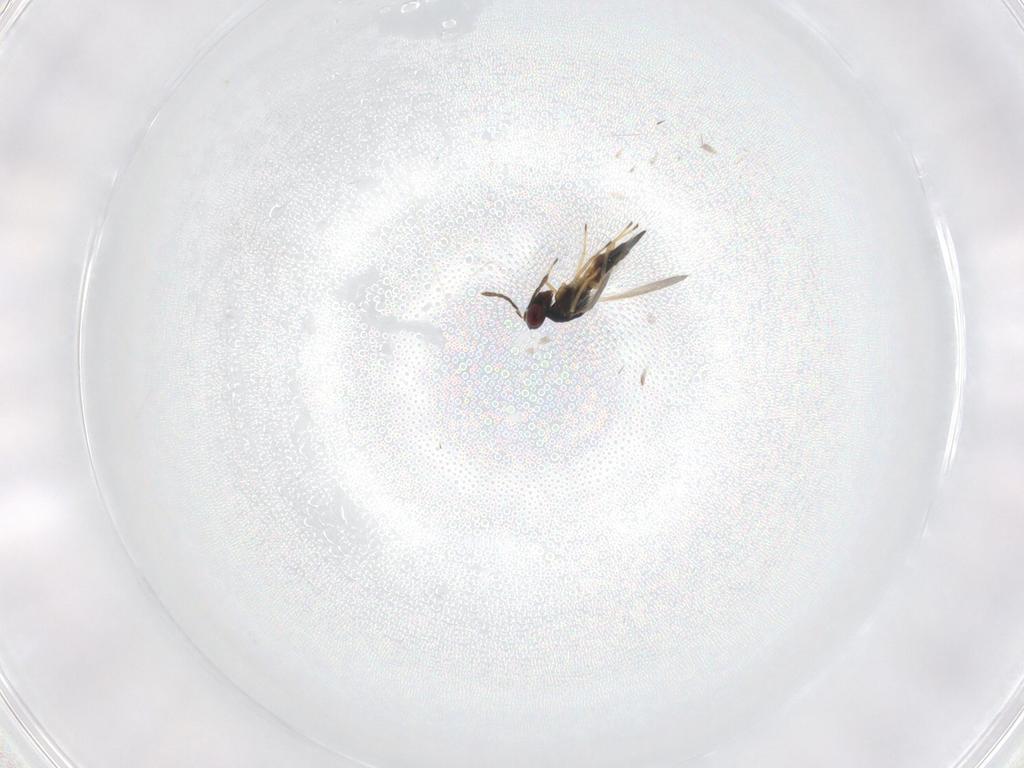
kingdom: Animalia
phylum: Arthropoda
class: Insecta
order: Hymenoptera
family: Eulophidae
